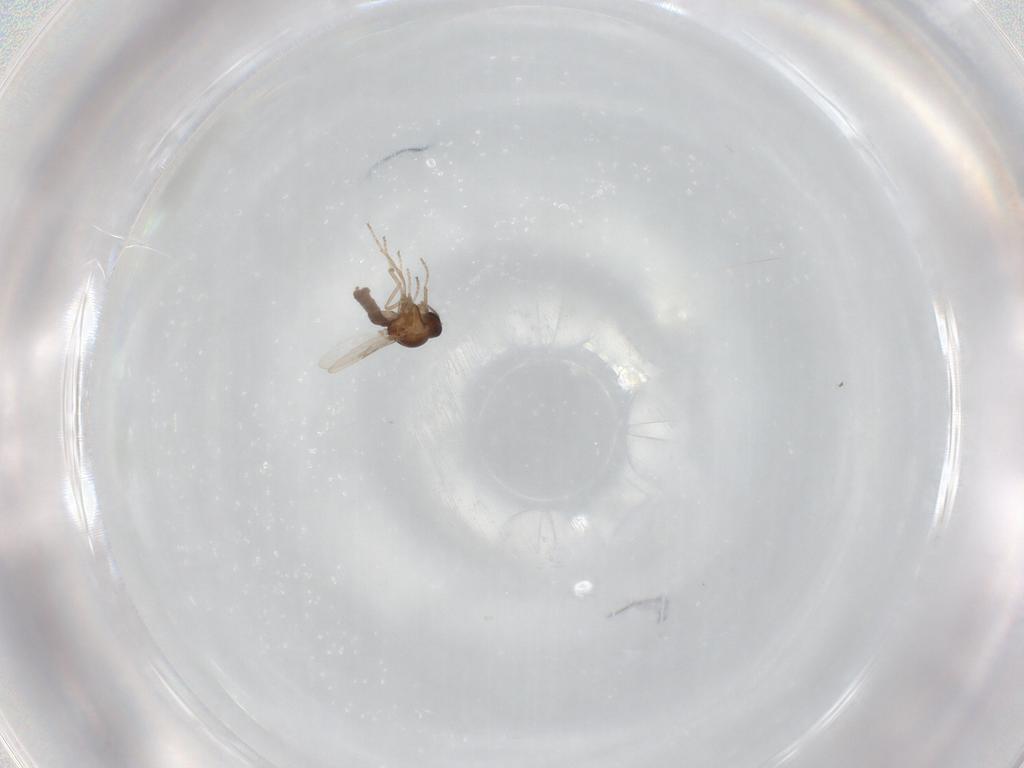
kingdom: Animalia
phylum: Arthropoda
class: Insecta
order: Diptera
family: Ceratopogonidae
